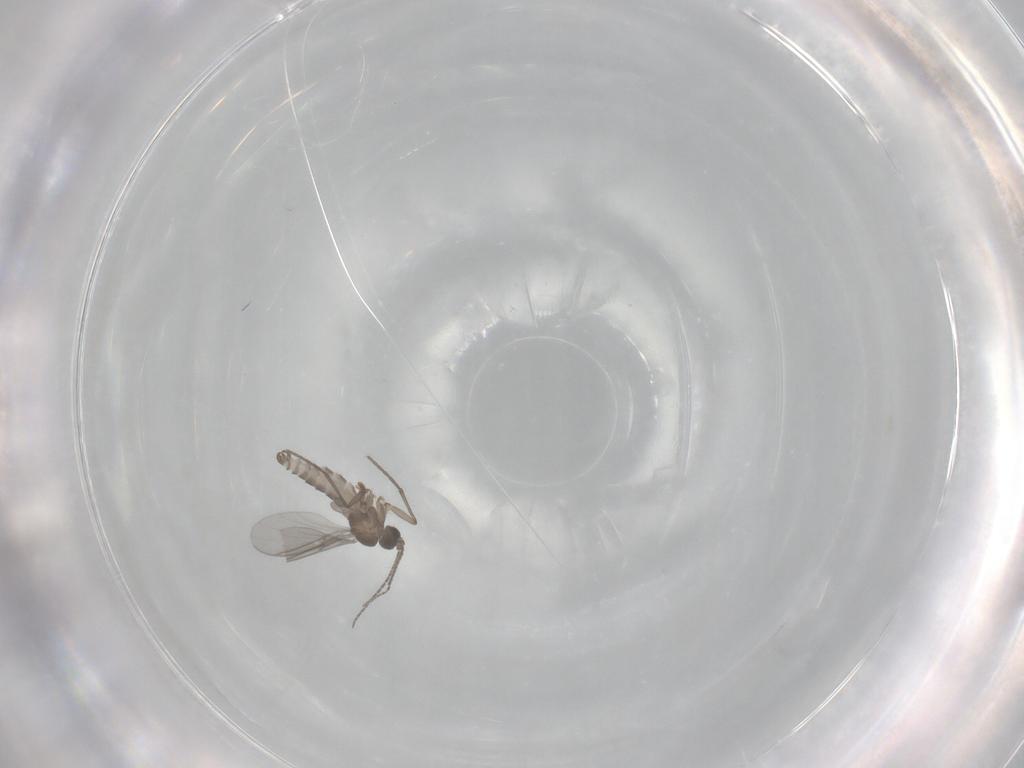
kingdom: Animalia
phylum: Arthropoda
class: Insecta
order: Diptera
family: Sciaridae
